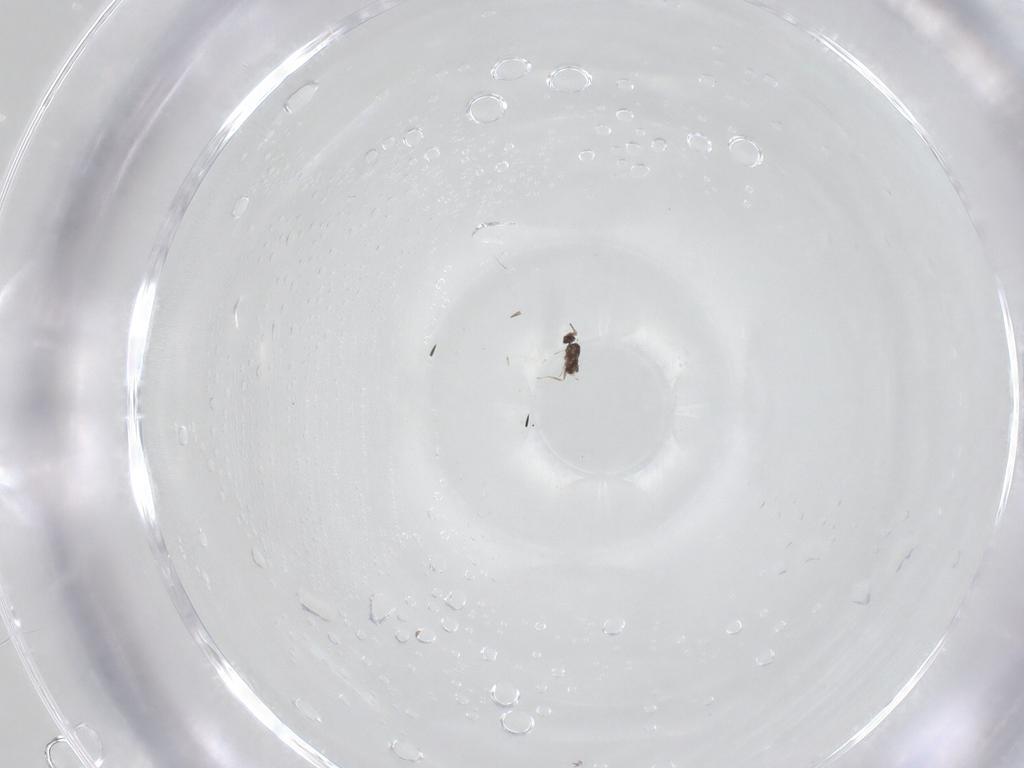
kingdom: Animalia
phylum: Arthropoda
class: Insecta
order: Hymenoptera
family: Mymaridae
